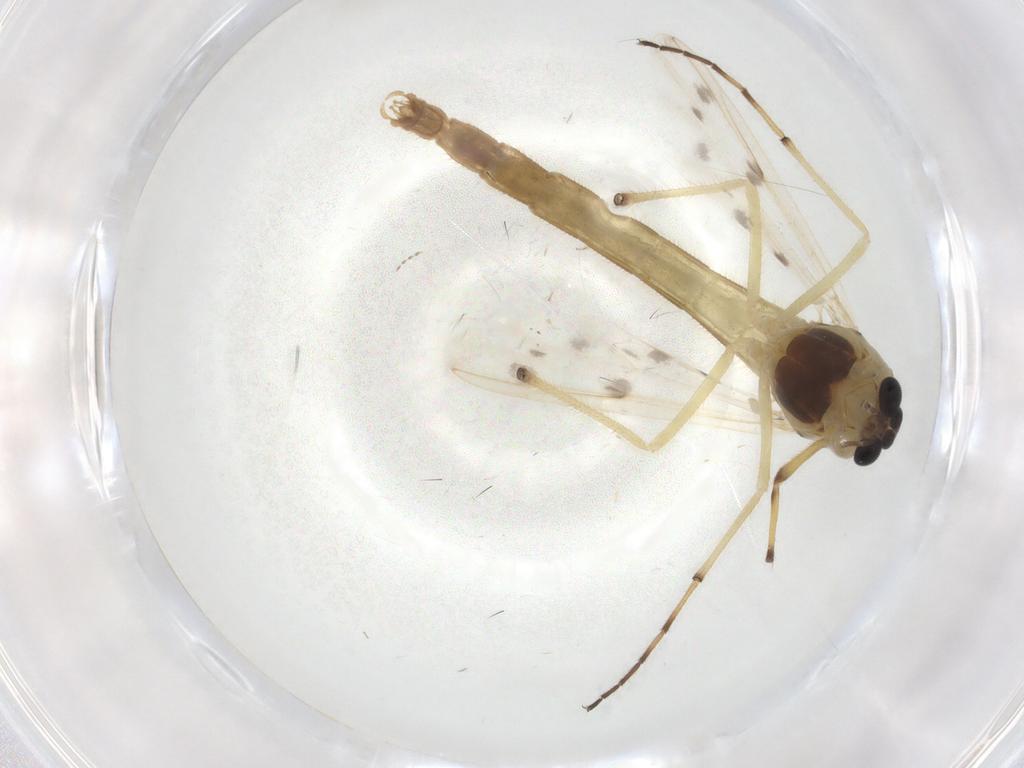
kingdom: Animalia
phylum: Arthropoda
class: Insecta
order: Diptera
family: Cecidomyiidae
